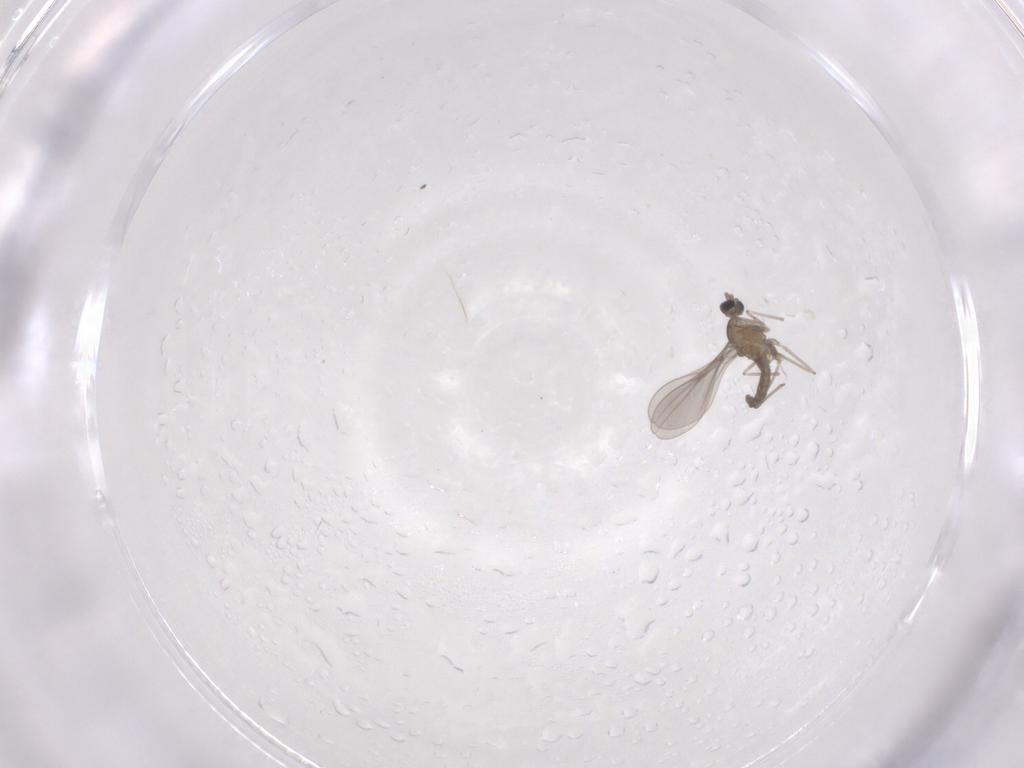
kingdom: Animalia
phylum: Arthropoda
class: Insecta
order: Diptera
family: Cecidomyiidae
